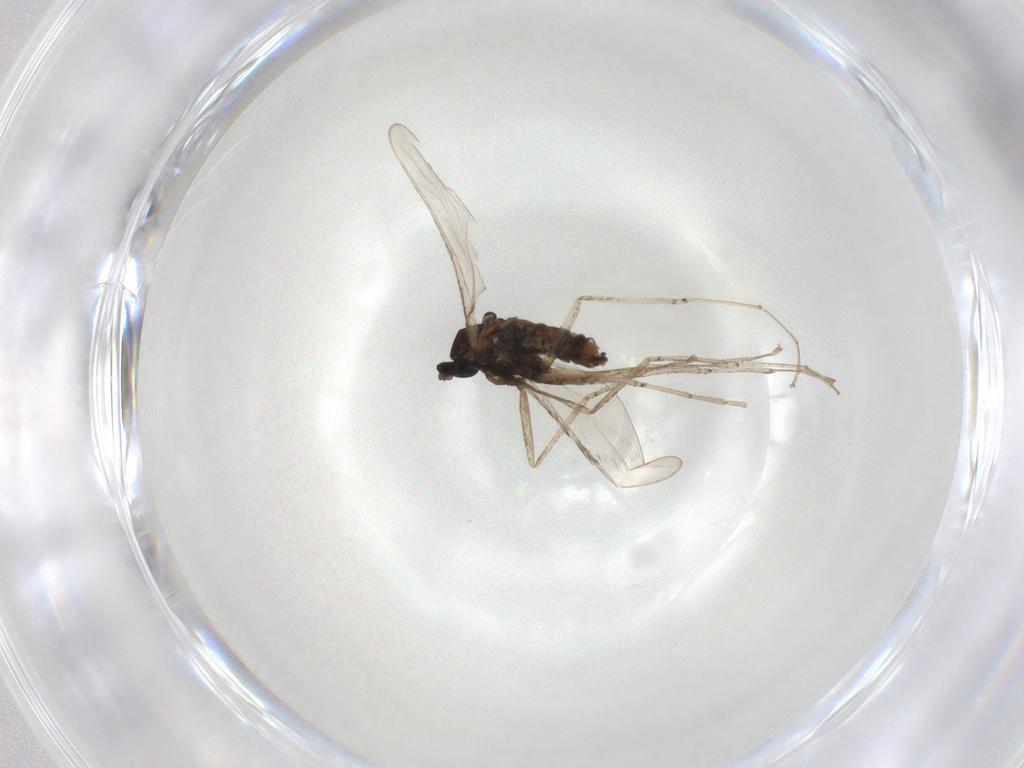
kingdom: Animalia
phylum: Arthropoda
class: Insecta
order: Diptera
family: Cecidomyiidae
